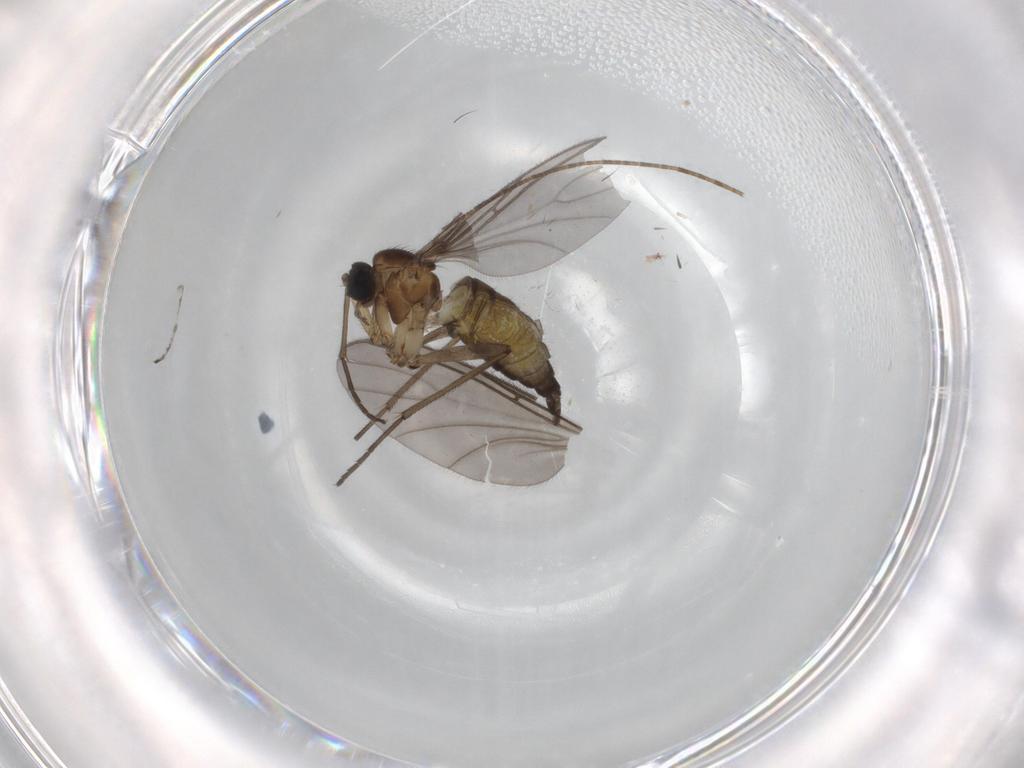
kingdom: Animalia
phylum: Arthropoda
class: Insecta
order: Diptera
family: Sciaridae
